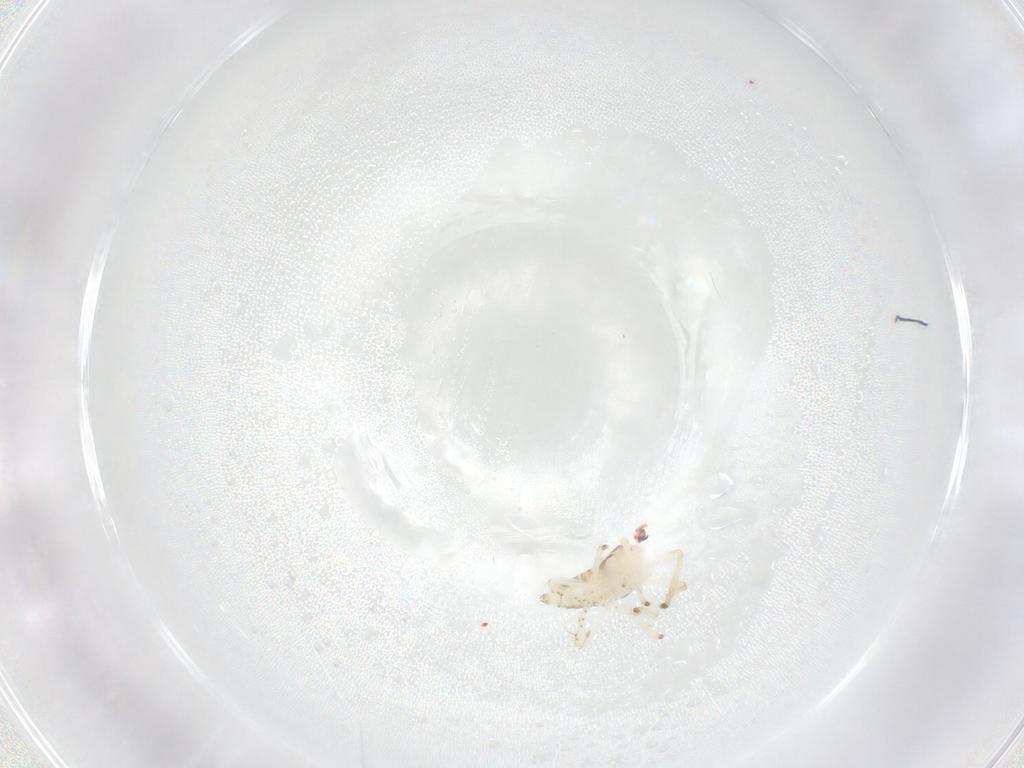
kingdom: Animalia
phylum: Arthropoda
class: Insecta
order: Hemiptera
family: Tropiduchidae
